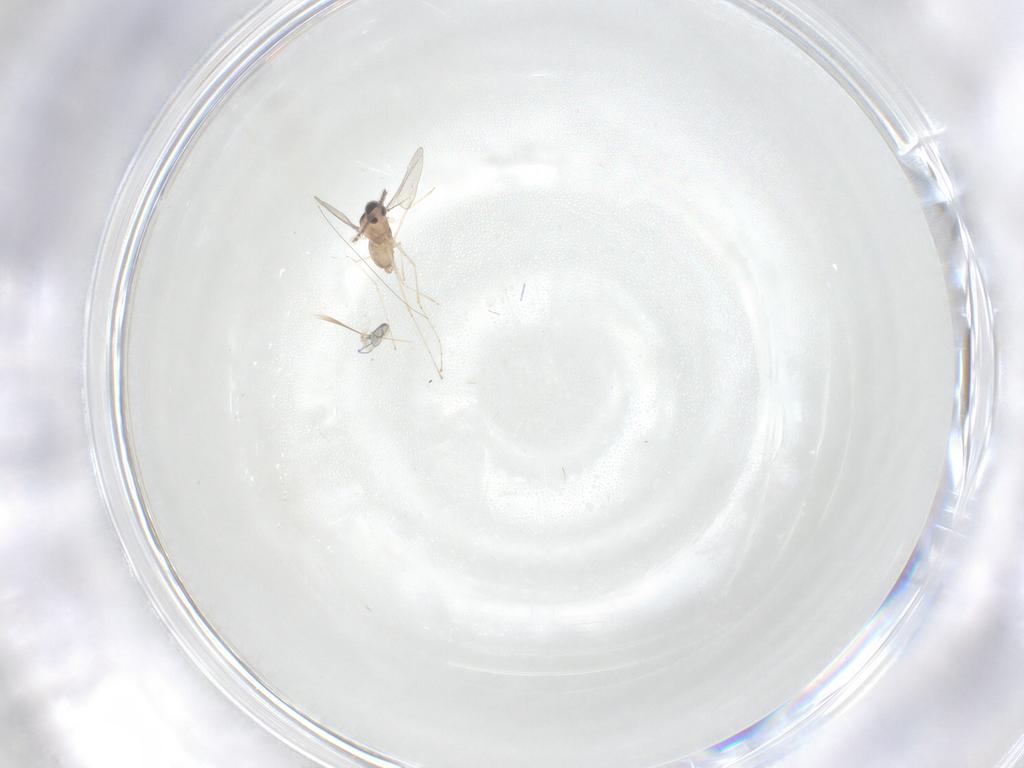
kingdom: Animalia
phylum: Arthropoda
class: Insecta
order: Diptera
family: Cecidomyiidae
